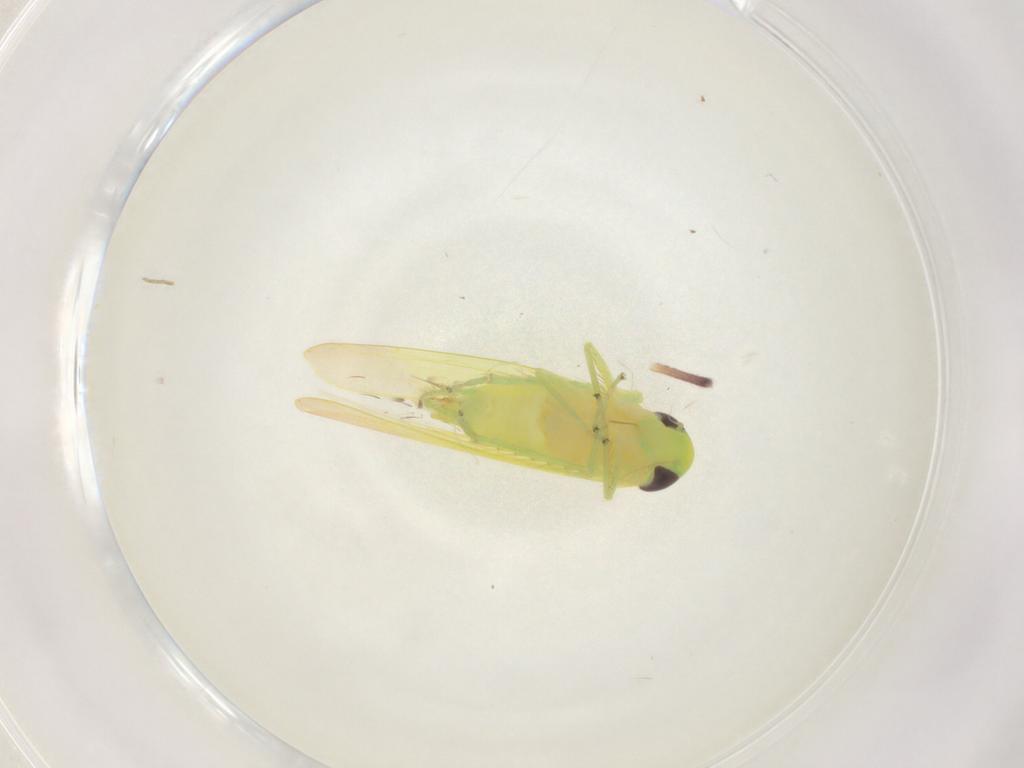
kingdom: Animalia
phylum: Arthropoda
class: Insecta
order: Hemiptera
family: Cicadellidae
